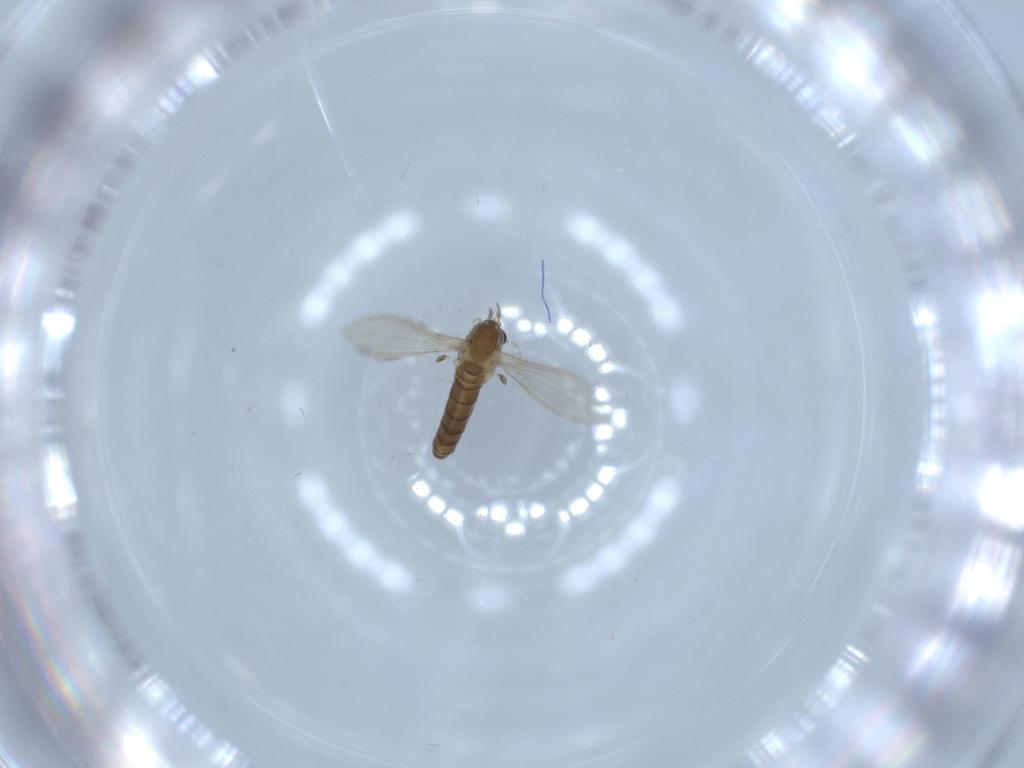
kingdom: Animalia
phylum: Arthropoda
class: Insecta
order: Diptera
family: Psychodidae
